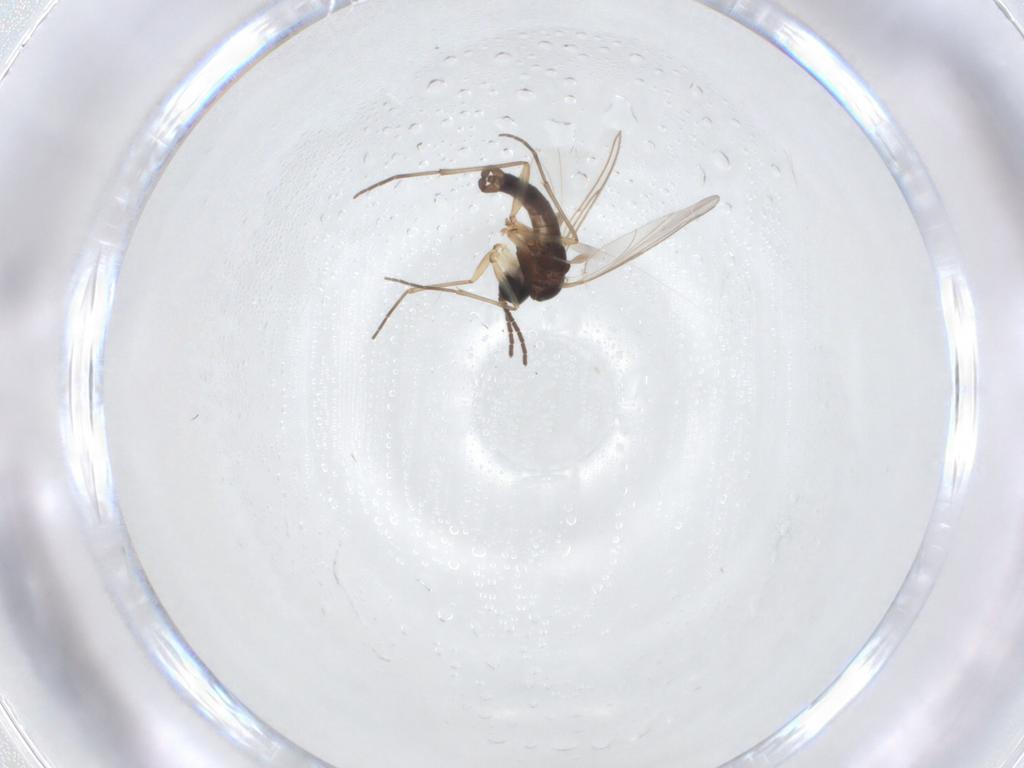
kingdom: Animalia
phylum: Arthropoda
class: Insecta
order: Diptera
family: Sciaridae
